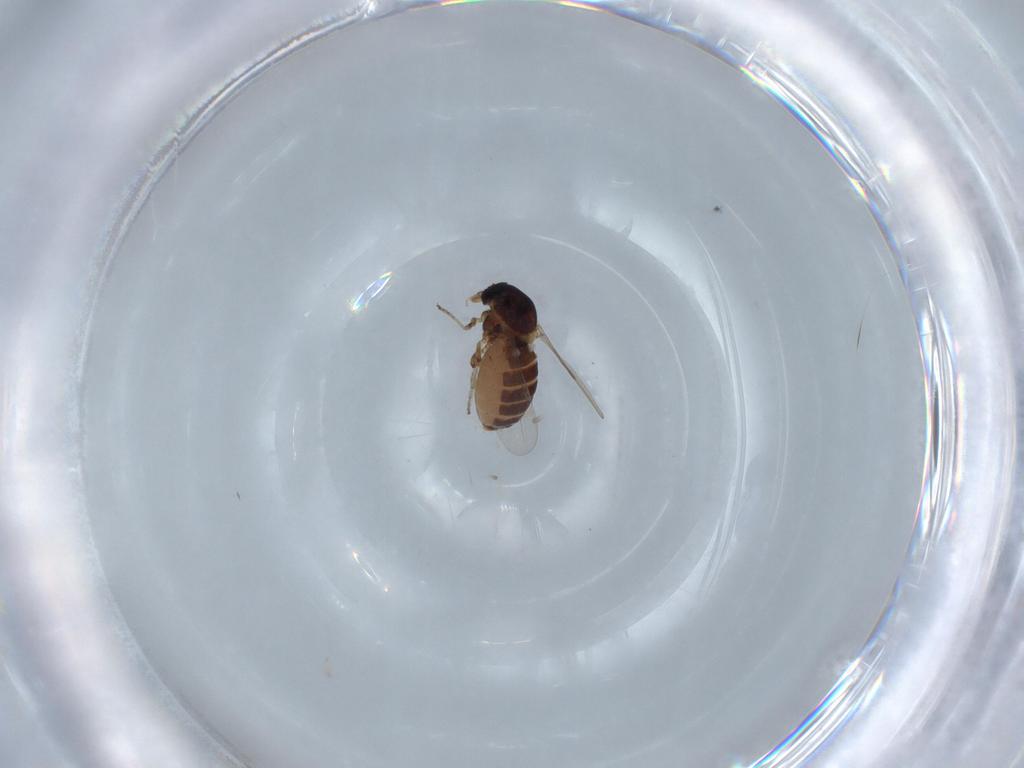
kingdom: Animalia
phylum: Arthropoda
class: Insecta
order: Diptera
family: Ceratopogonidae
